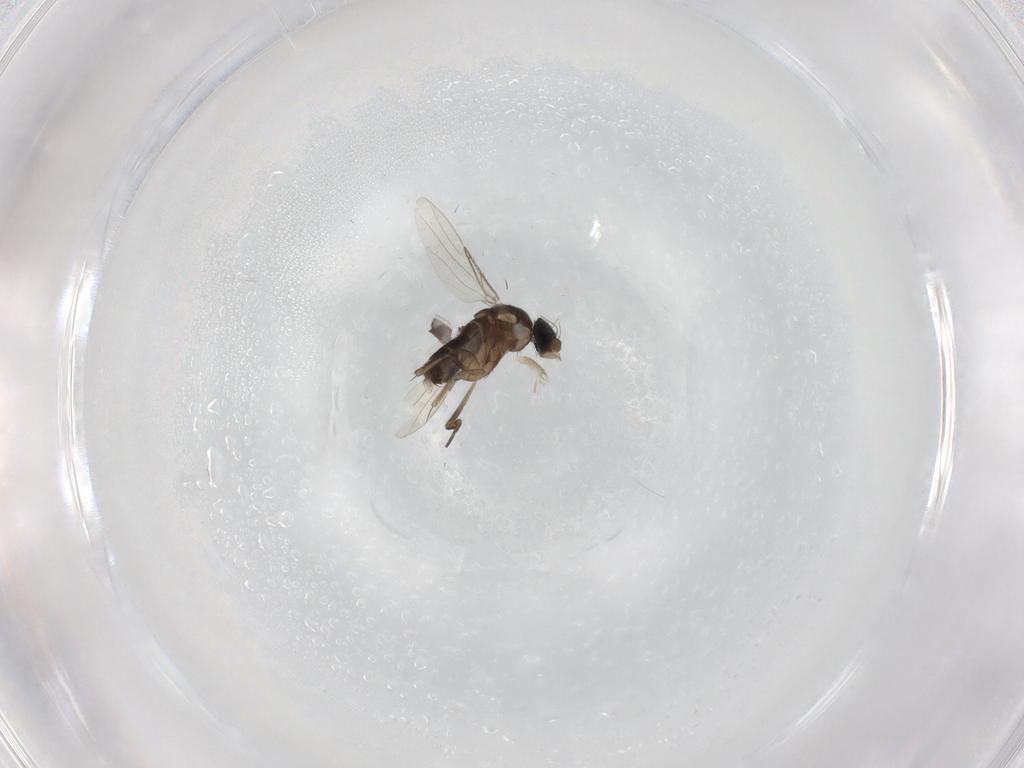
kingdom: Animalia
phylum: Arthropoda
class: Insecta
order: Diptera
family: Phoridae
